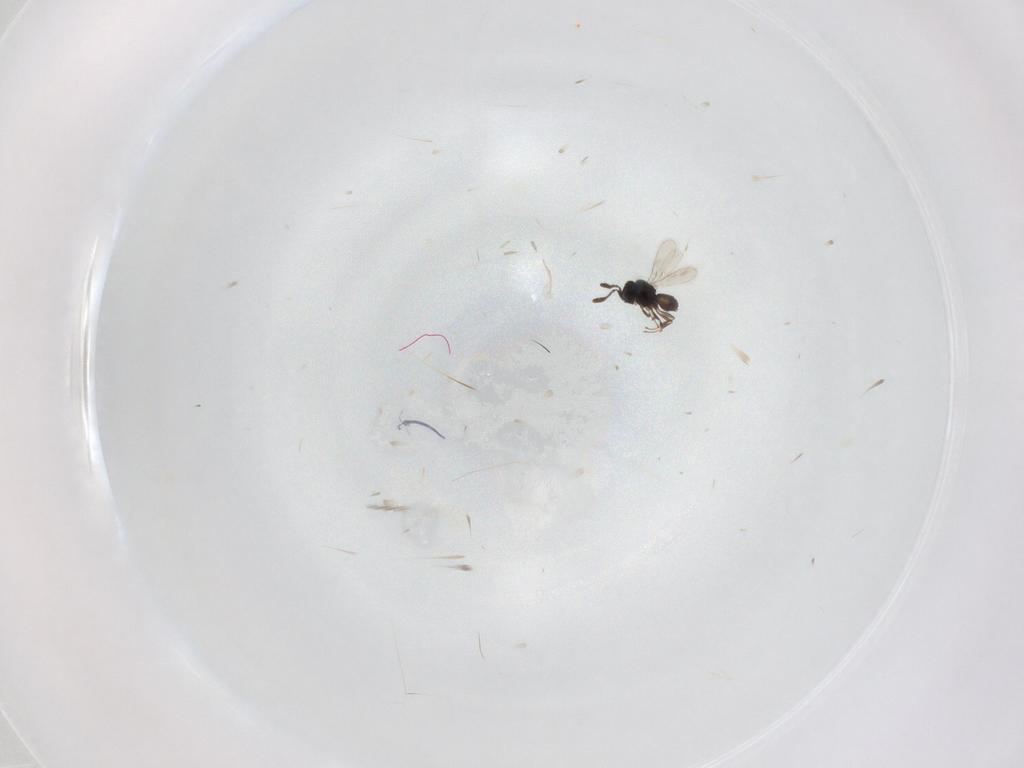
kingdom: Animalia
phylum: Arthropoda
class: Insecta
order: Hymenoptera
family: Scelionidae
